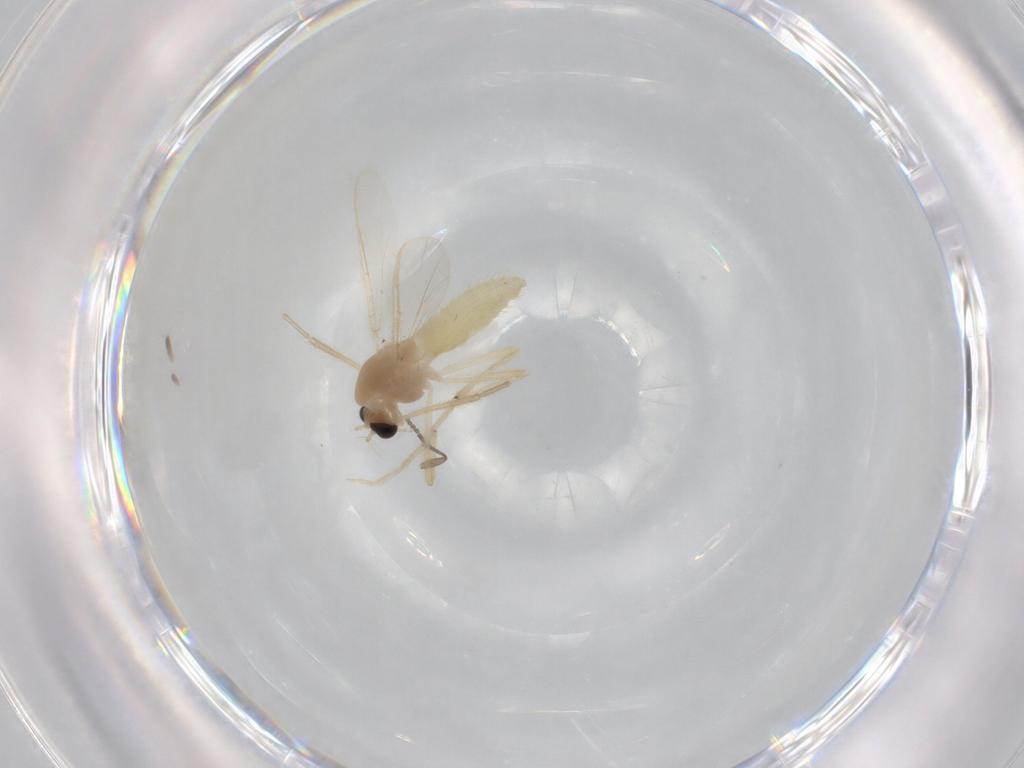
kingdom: Animalia
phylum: Arthropoda
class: Insecta
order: Diptera
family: Chironomidae
